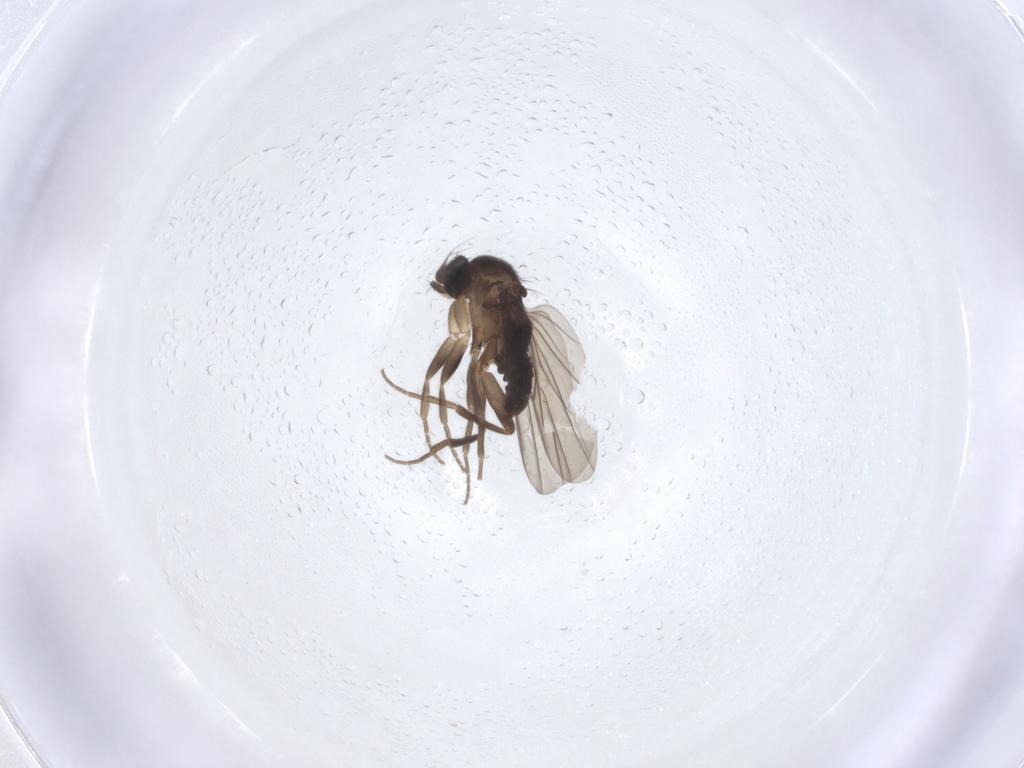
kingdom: Animalia
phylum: Arthropoda
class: Insecta
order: Diptera
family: Phoridae
